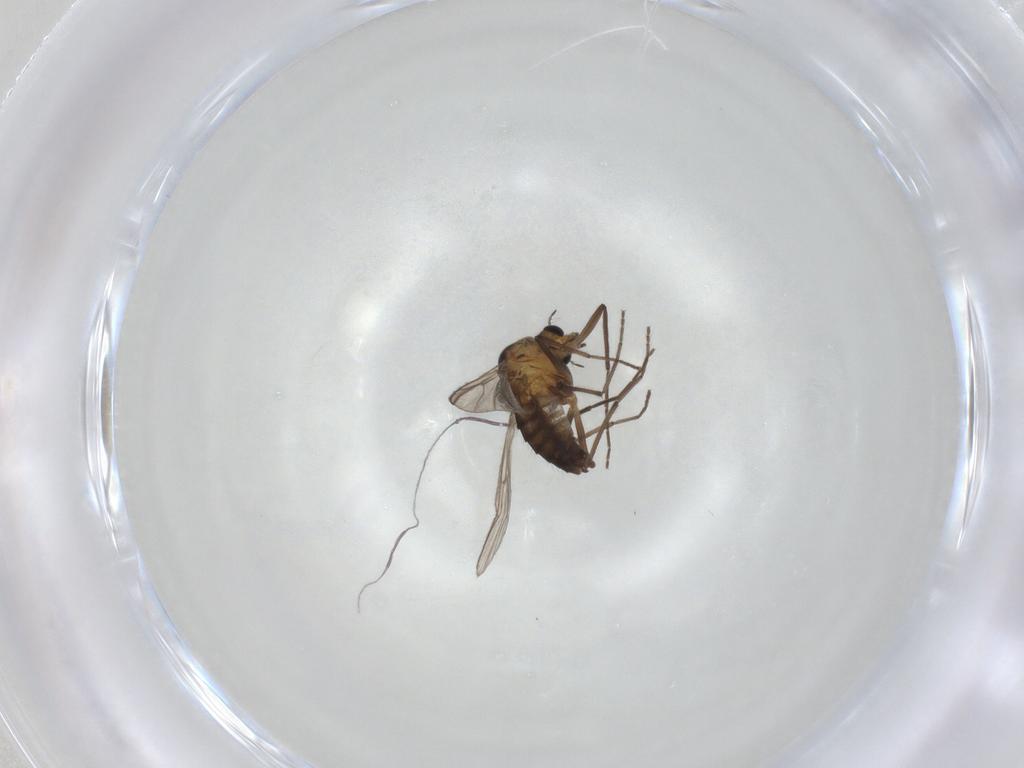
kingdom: Animalia
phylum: Arthropoda
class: Insecta
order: Diptera
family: Chironomidae
